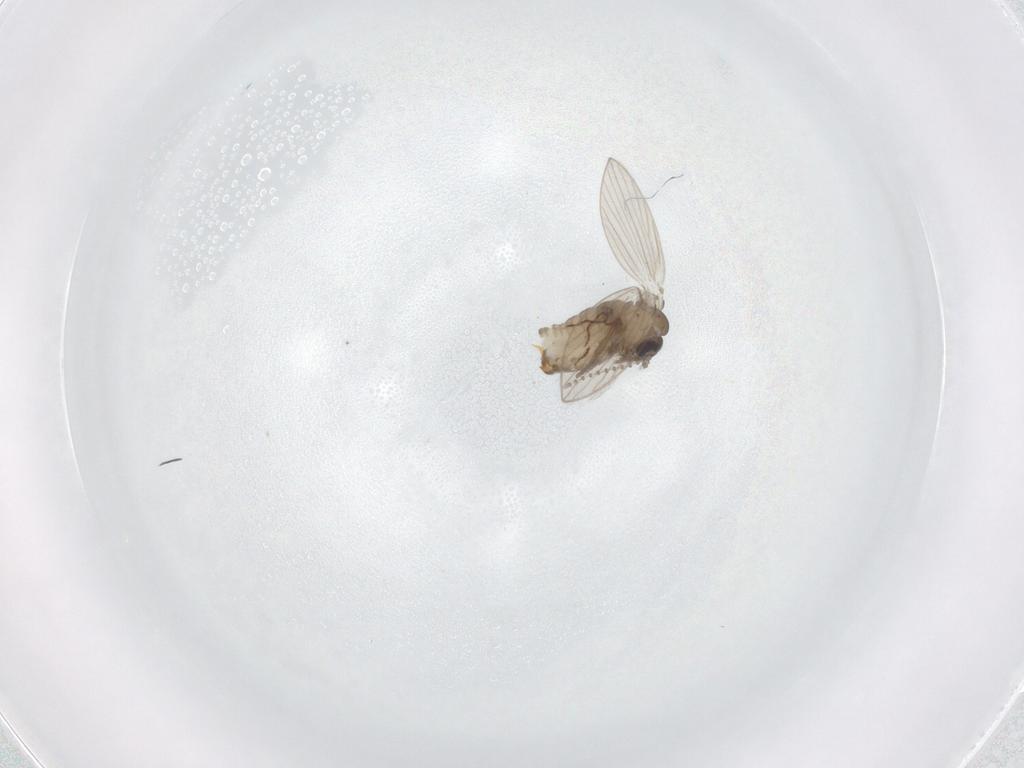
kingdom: Animalia
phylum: Arthropoda
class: Insecta
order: Diptera
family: Psychodidae
